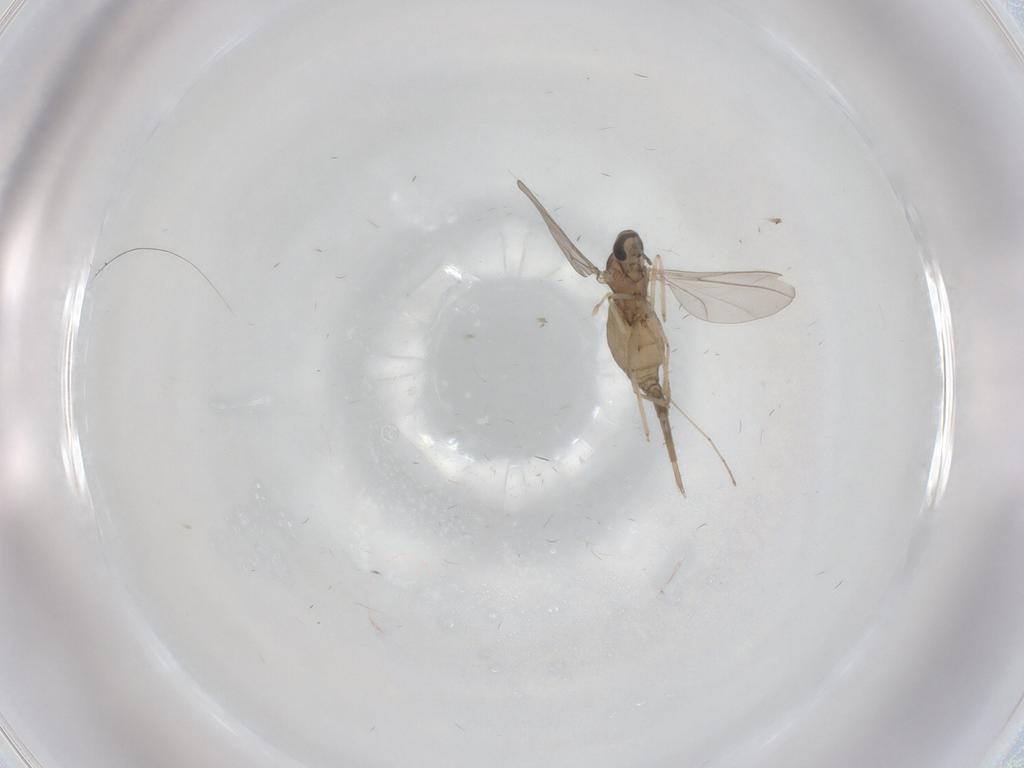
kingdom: Animalia
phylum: Arthropoda
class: Insecta
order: Diptera
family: Cecidomyiidae
